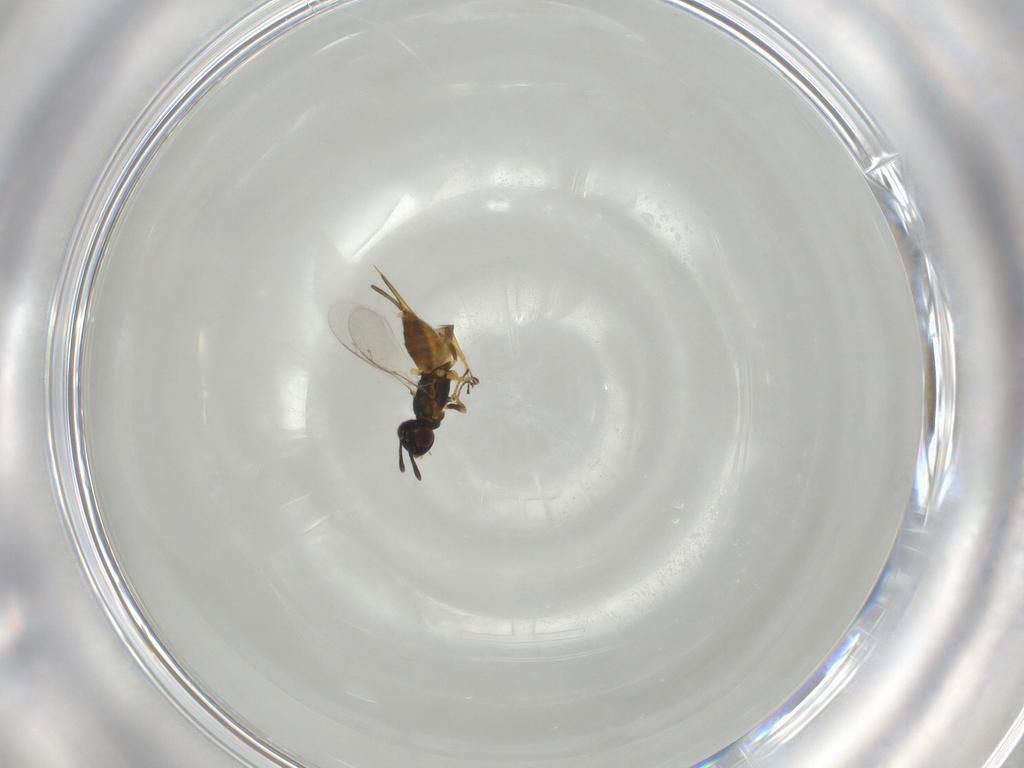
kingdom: Animalia
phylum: Arthropoda
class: Insecta
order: Hymenoptera
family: Eupelmidae
